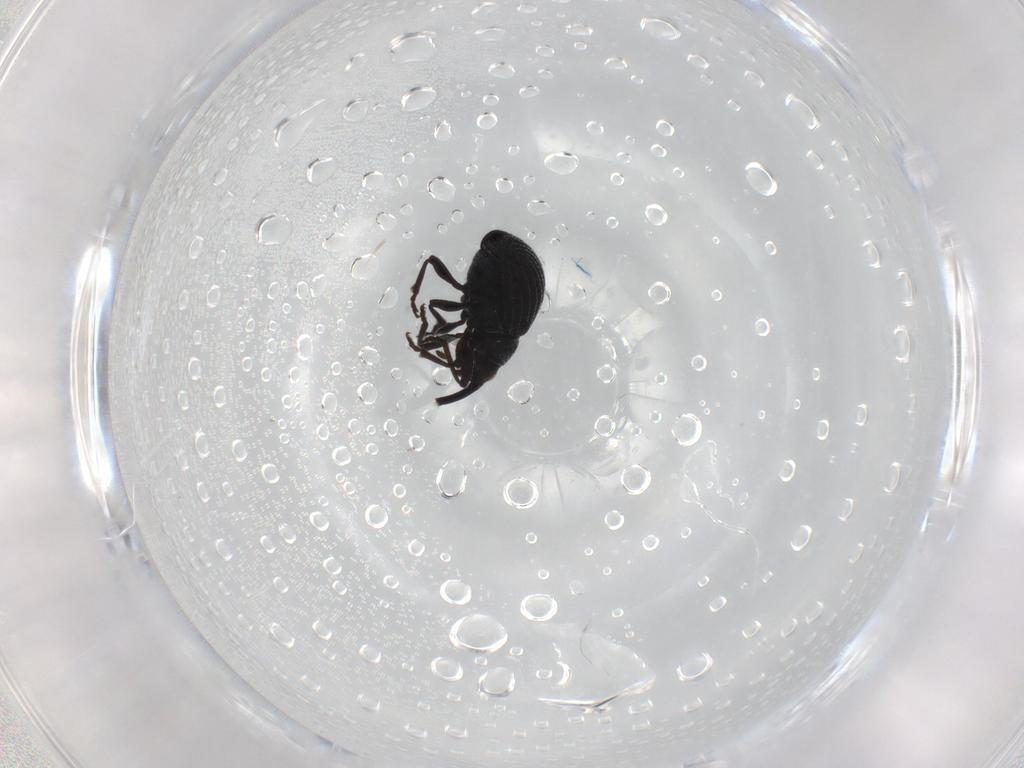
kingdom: Animalia
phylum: Arthropoda
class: Insecta
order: Coleoptera
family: Brentidae
